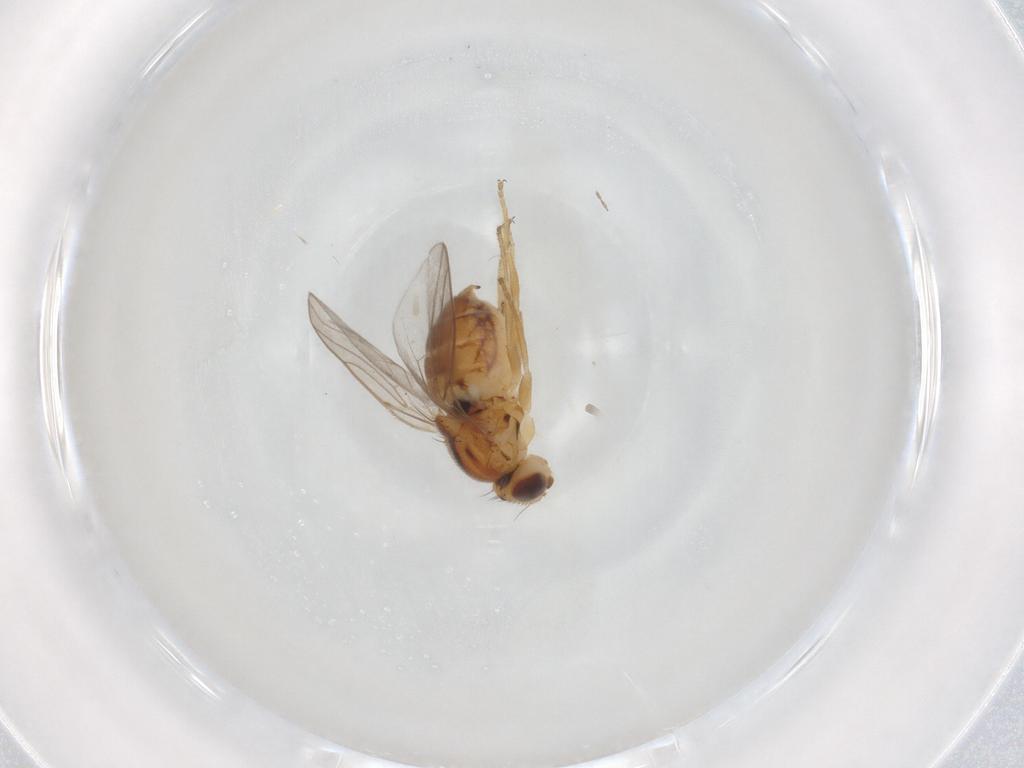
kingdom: Animalia
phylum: Arthropoda
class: Insecta
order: Diptera
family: Chloropidae
